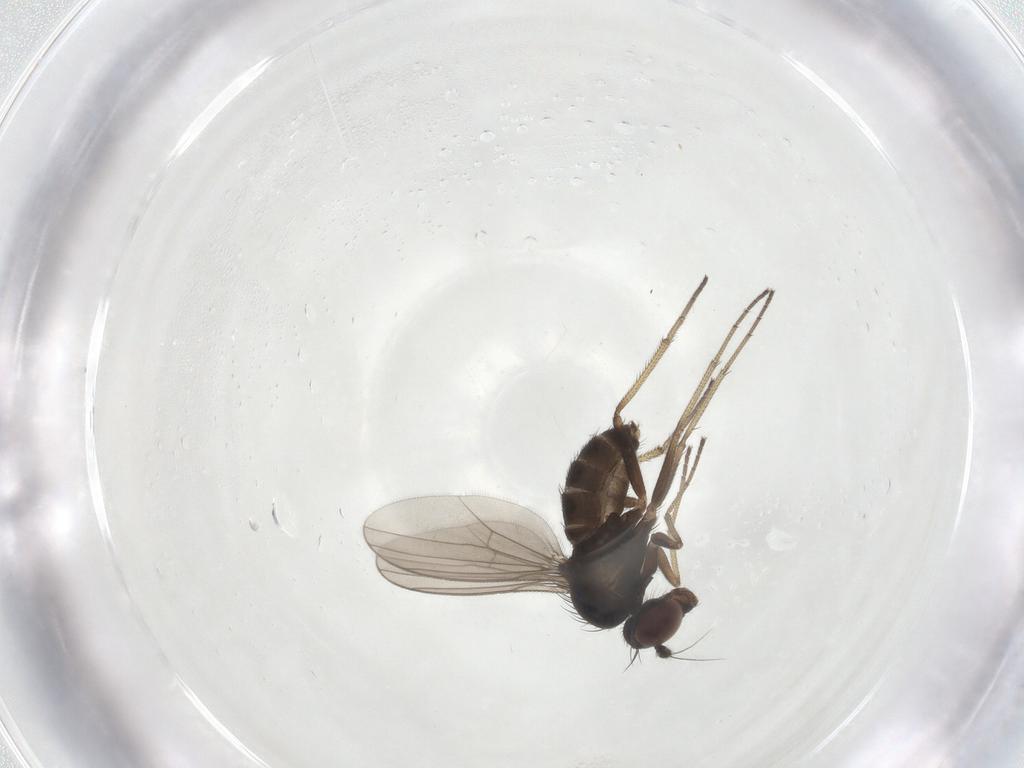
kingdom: Animalia
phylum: Arthropoda
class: Insecta
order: Diptera
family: Dolichopodidae
